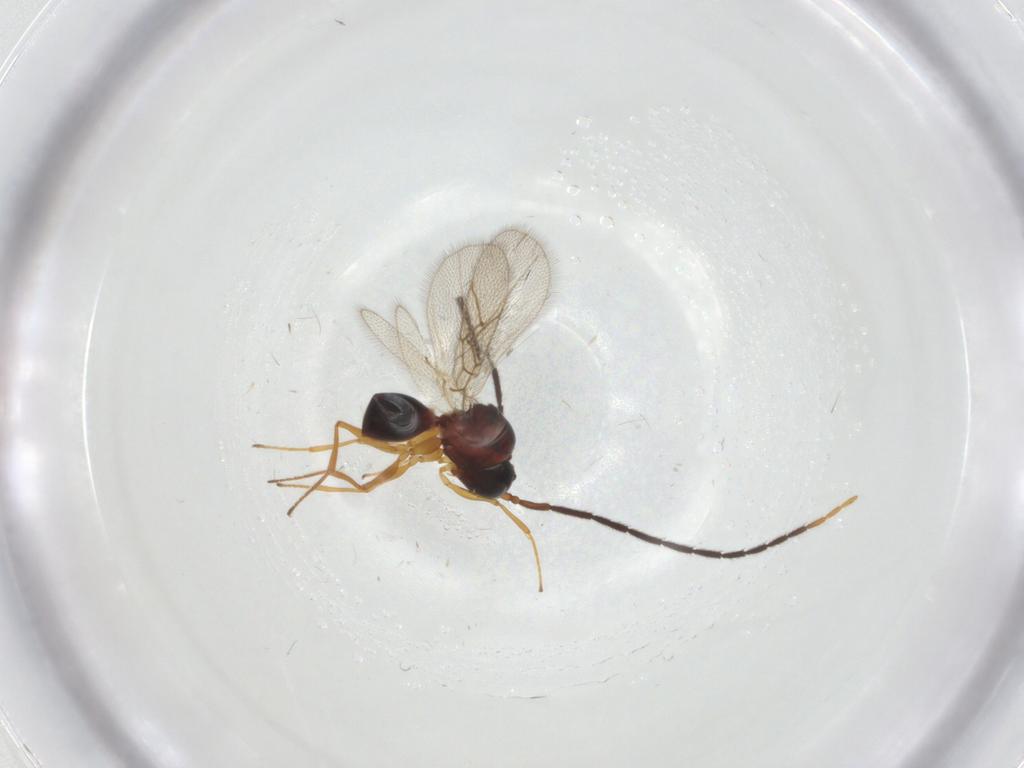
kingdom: Animalia
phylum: Arthropoda
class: Insecta
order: Hymenoptera
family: Figitidae
